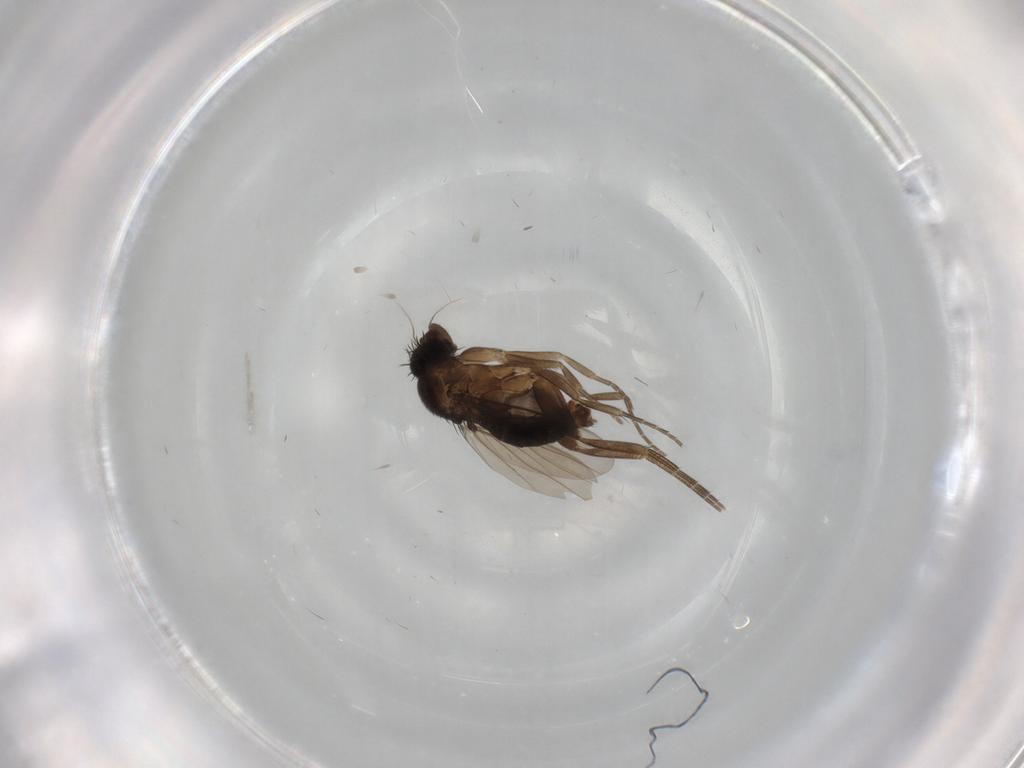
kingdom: Animalia
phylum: Arthropoda
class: Insecta
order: Diptera
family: Phoridae
